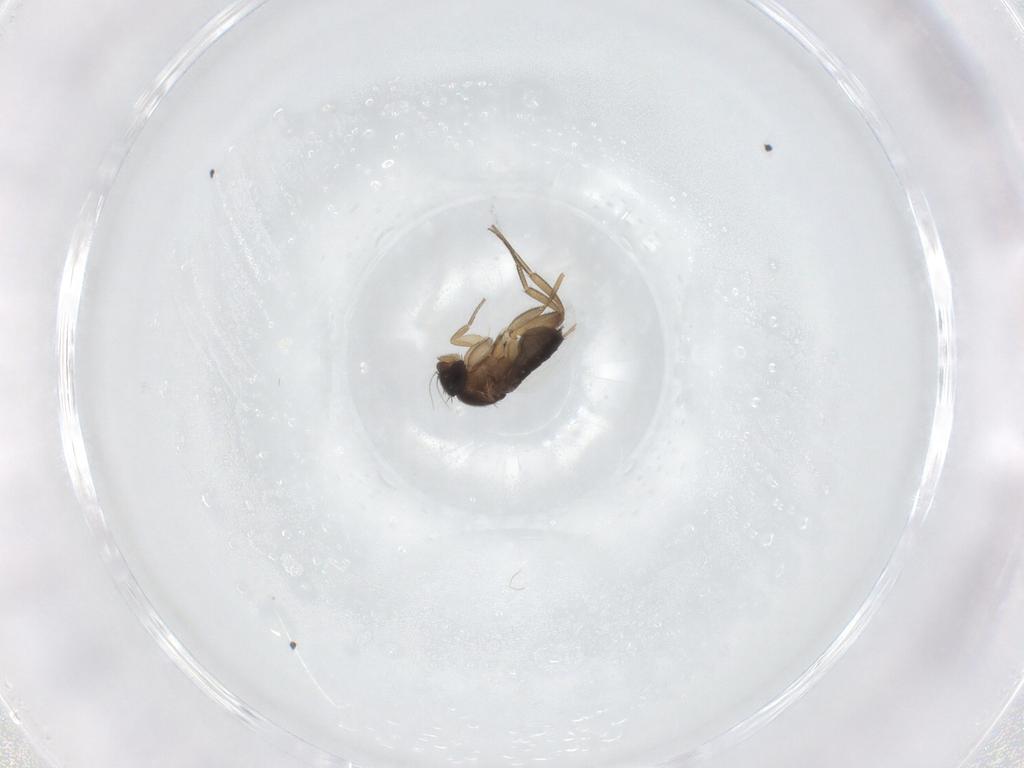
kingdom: Animalia
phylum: Arthropoda
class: Insecta
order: Diptera
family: Phoridae
